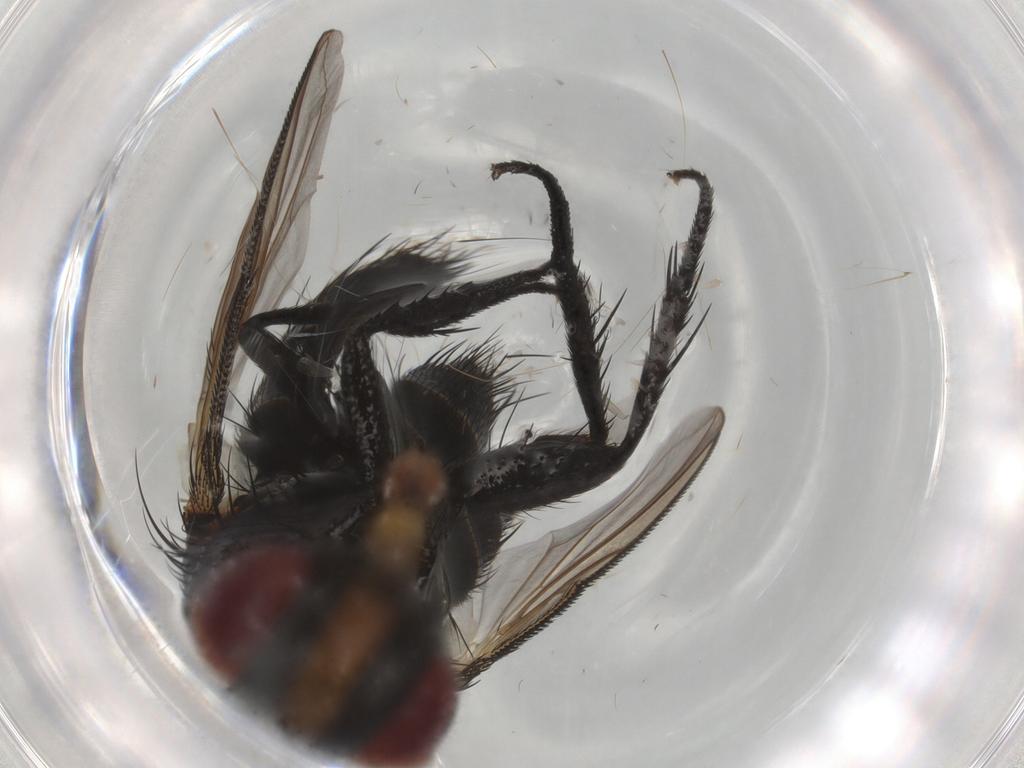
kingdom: Animalia
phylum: Arthropoda
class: Insecta
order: Diptera
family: Tachinidae
